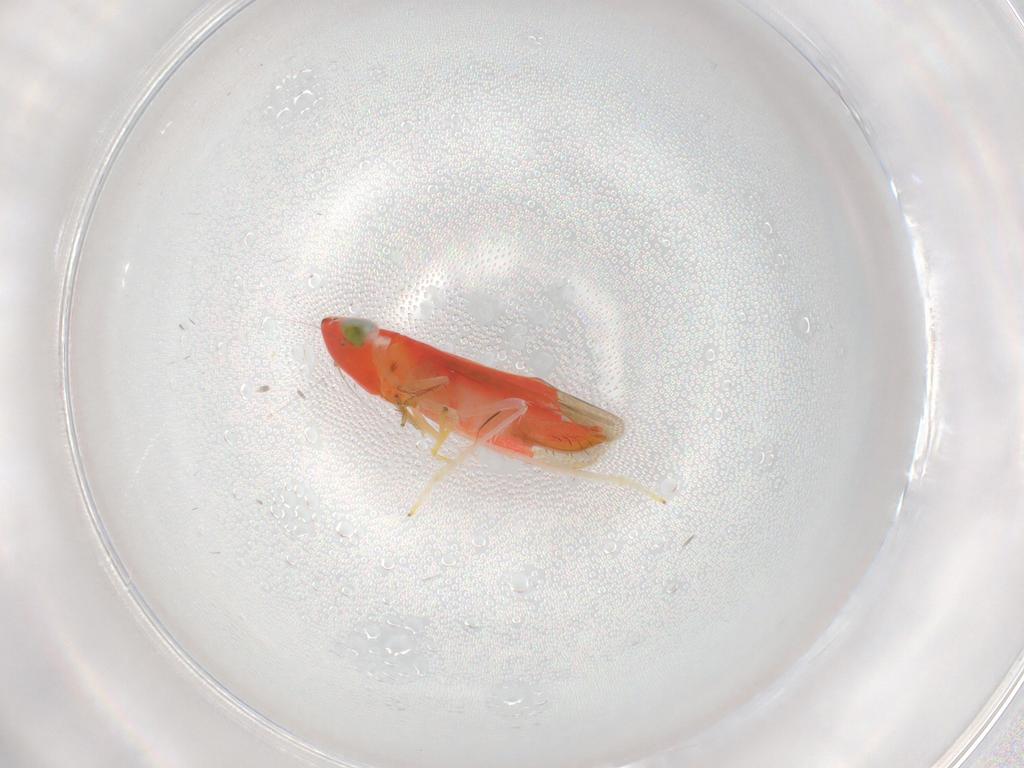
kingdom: Animalia
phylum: Arthropoda
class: Insecta
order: Hemiptera
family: Cicadellidae
